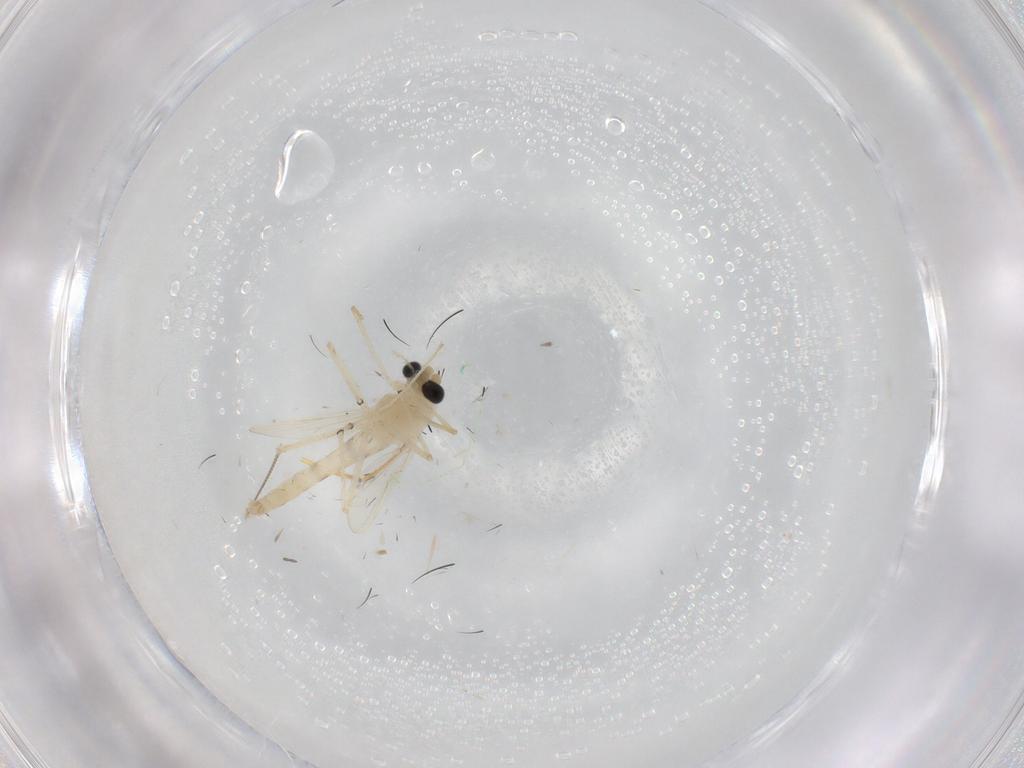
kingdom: Animalia
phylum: Arthropoda
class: Insecta
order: Diptera
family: Chironomidae
